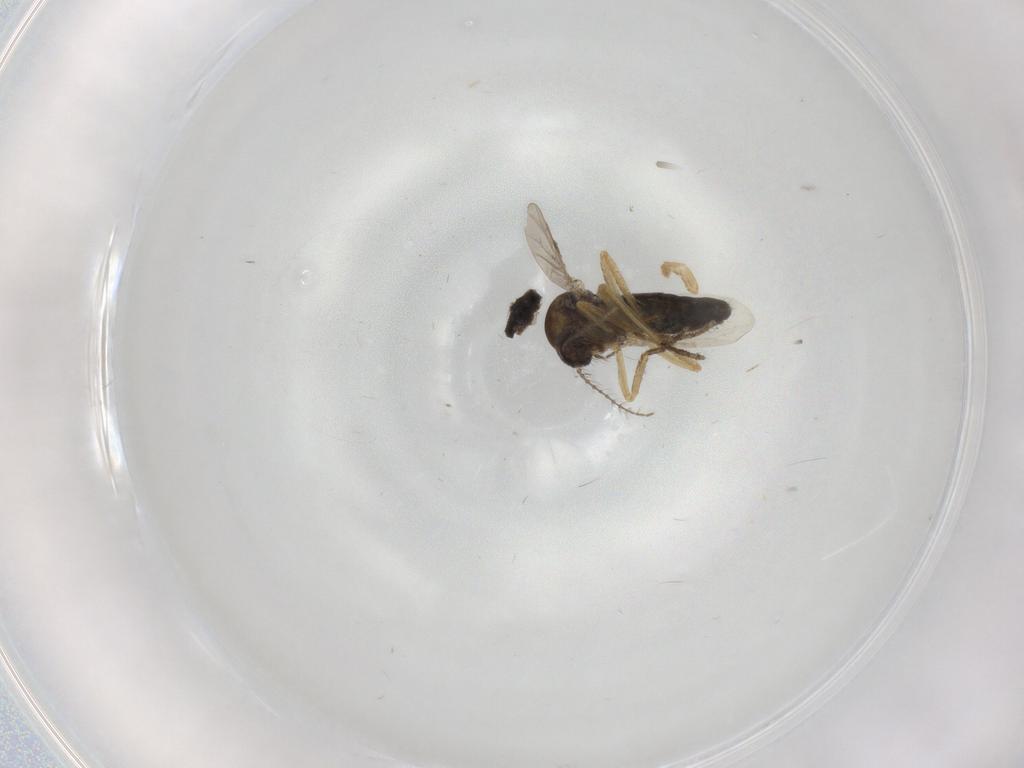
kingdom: Animalia
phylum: Arthropoda
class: Insecta
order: Diptera
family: Ceratopogonidae
